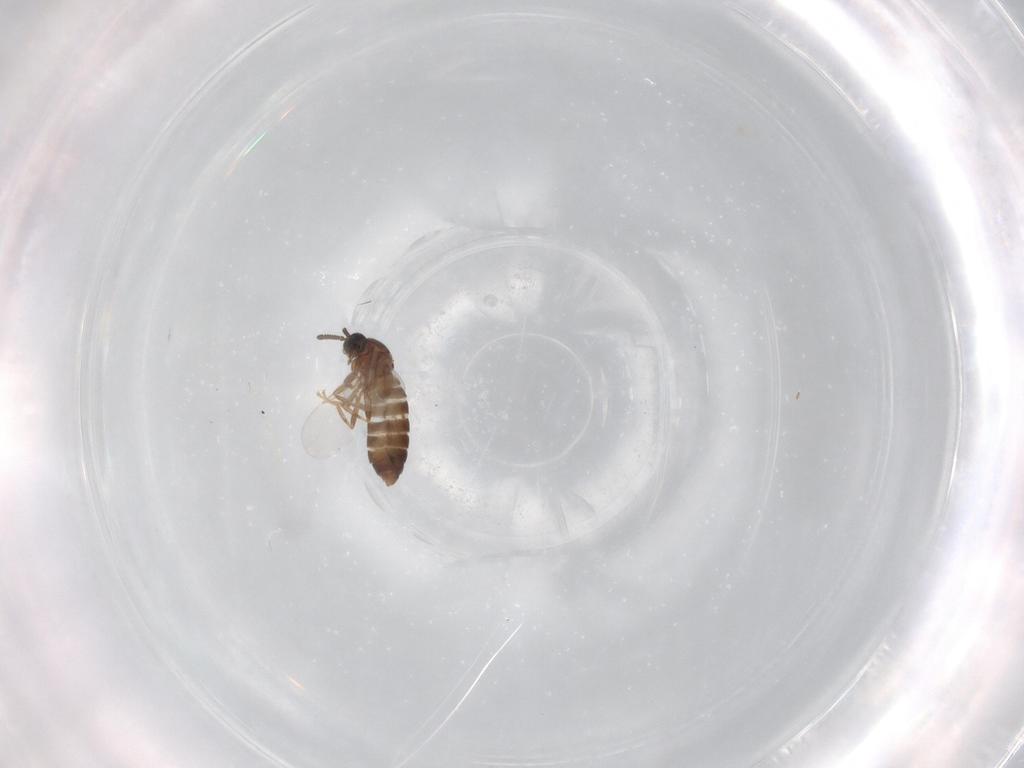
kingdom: Animalia
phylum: Arthropoda
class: Insecta
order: Diptera
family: Scatopsidae
